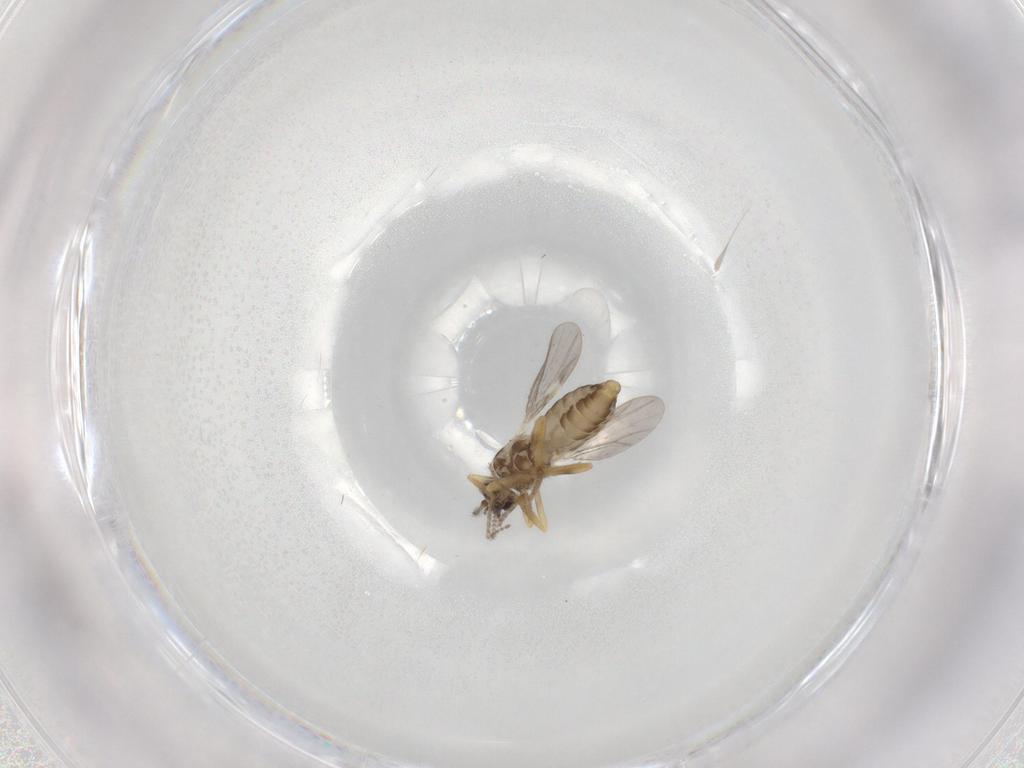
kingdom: Animalia
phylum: Arthropoda
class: Insecta
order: Diptera
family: Ceratopogonidae
